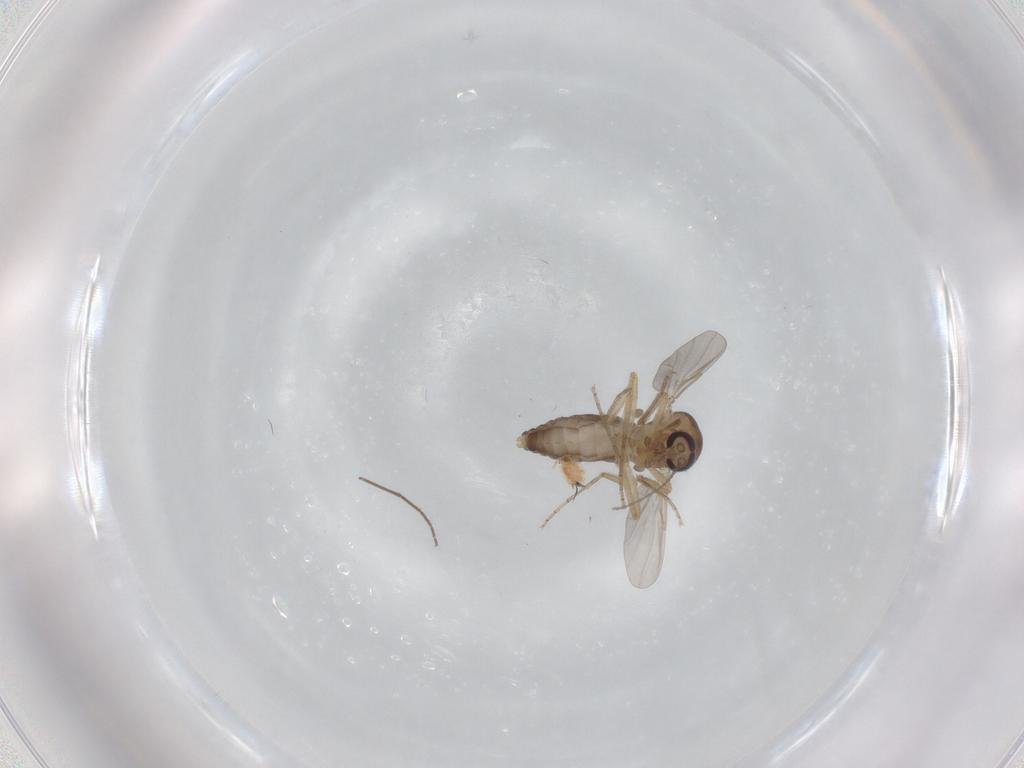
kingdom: Animalia
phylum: Arthropoda
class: Insecta
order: Diptera
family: Ceratopogonidae
